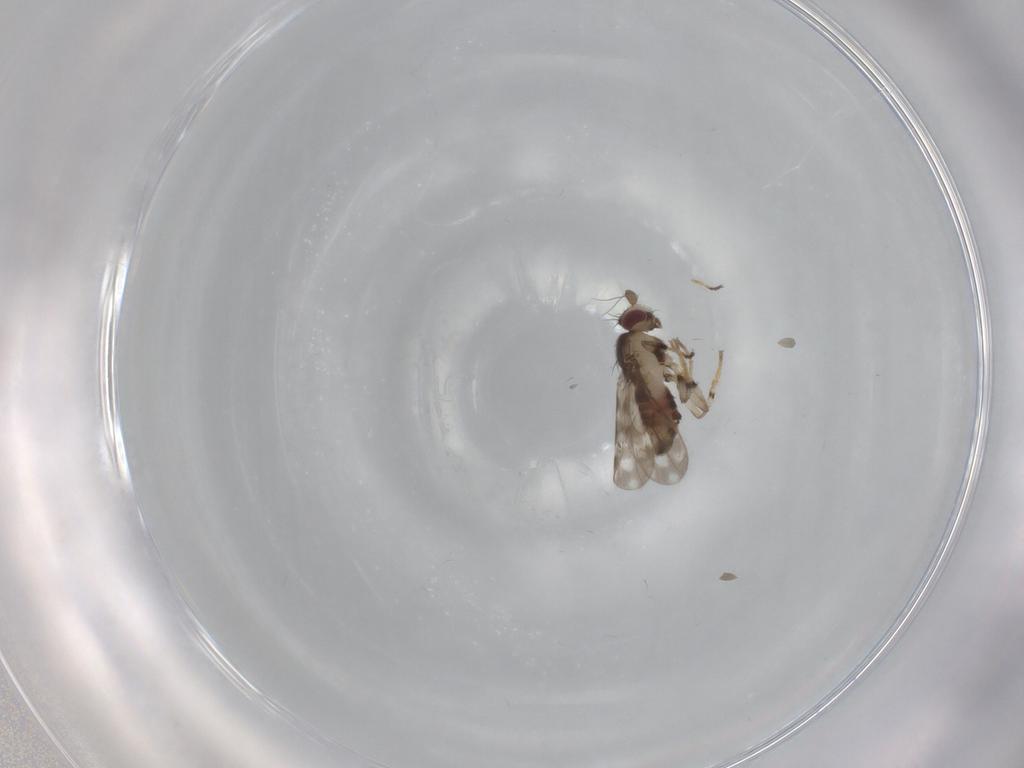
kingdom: Animalia
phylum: Arthropoda
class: Insecta
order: Diptera
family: Sphaeroceridae
